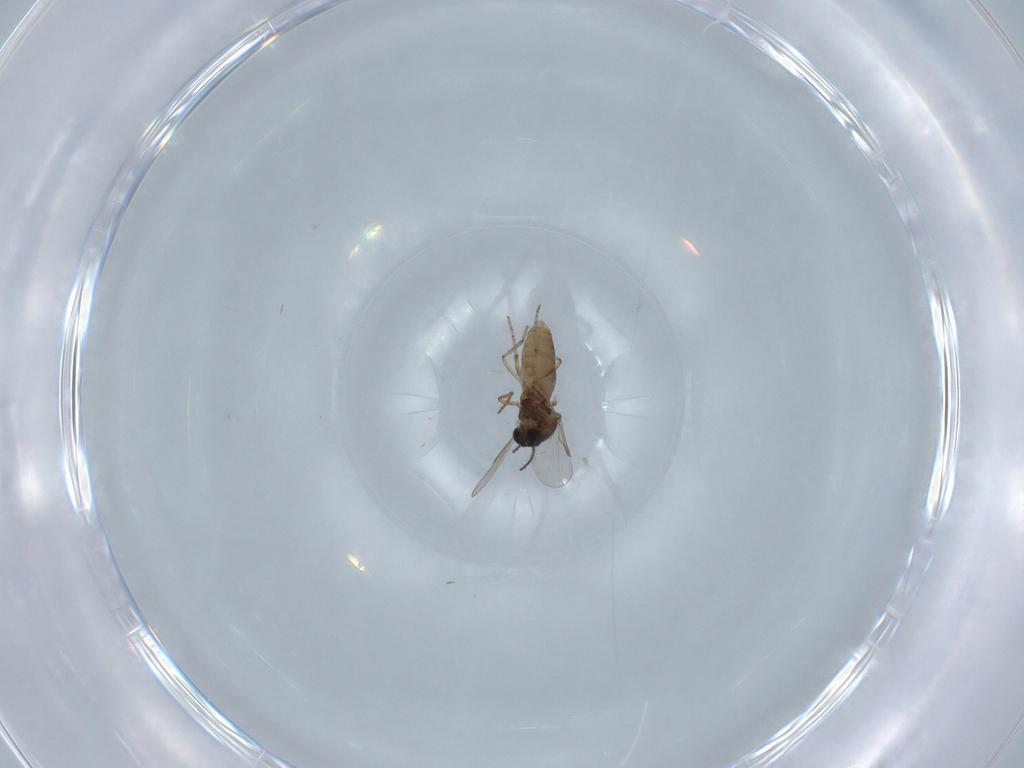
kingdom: Animalia
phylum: Arthropoda
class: Insecta
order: Diptera
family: Ceratopogonidae
